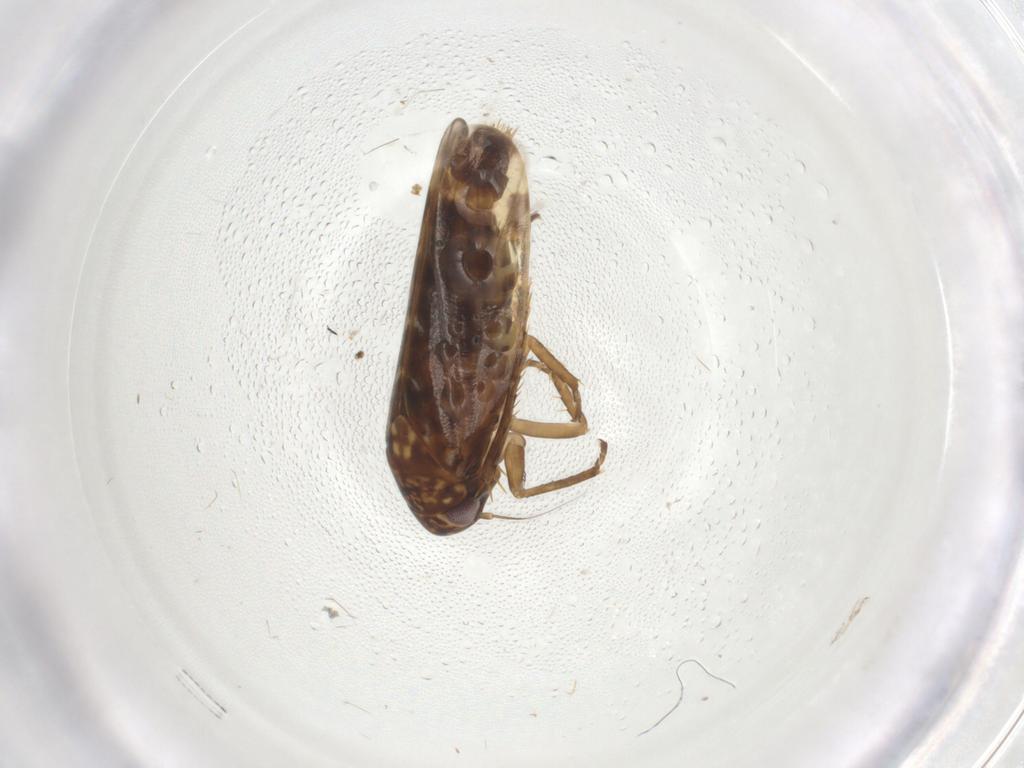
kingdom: Animalia
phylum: Arthropoda
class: Insecta
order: Hemiptera
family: Cicadellidae
